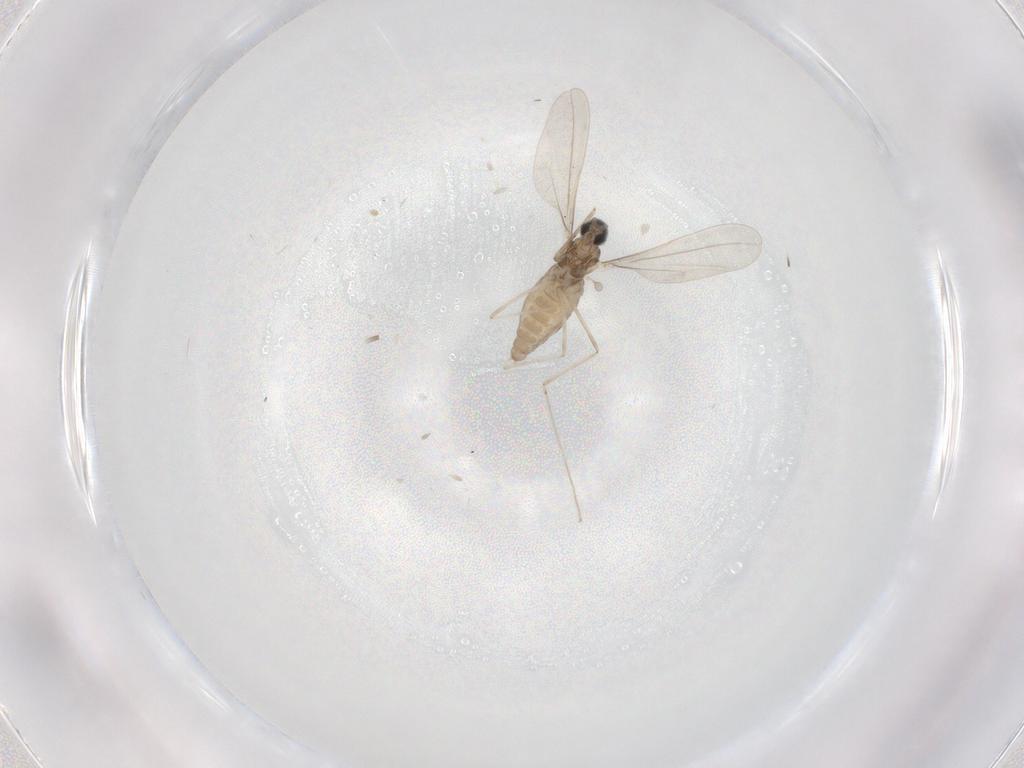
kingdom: Animalia
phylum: Arthropoda
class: Insecta
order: Diptera
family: Cecidomyiidae
